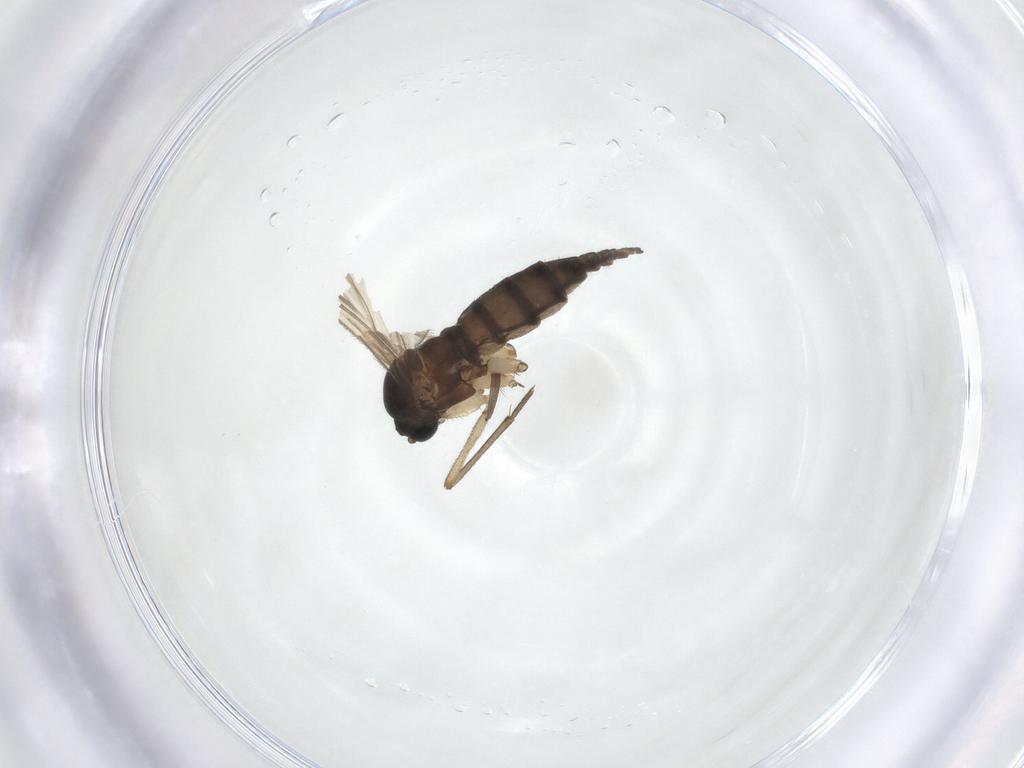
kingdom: Animalia
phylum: Arthropoda
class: Insecta
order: Diptera
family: Sciaridae
